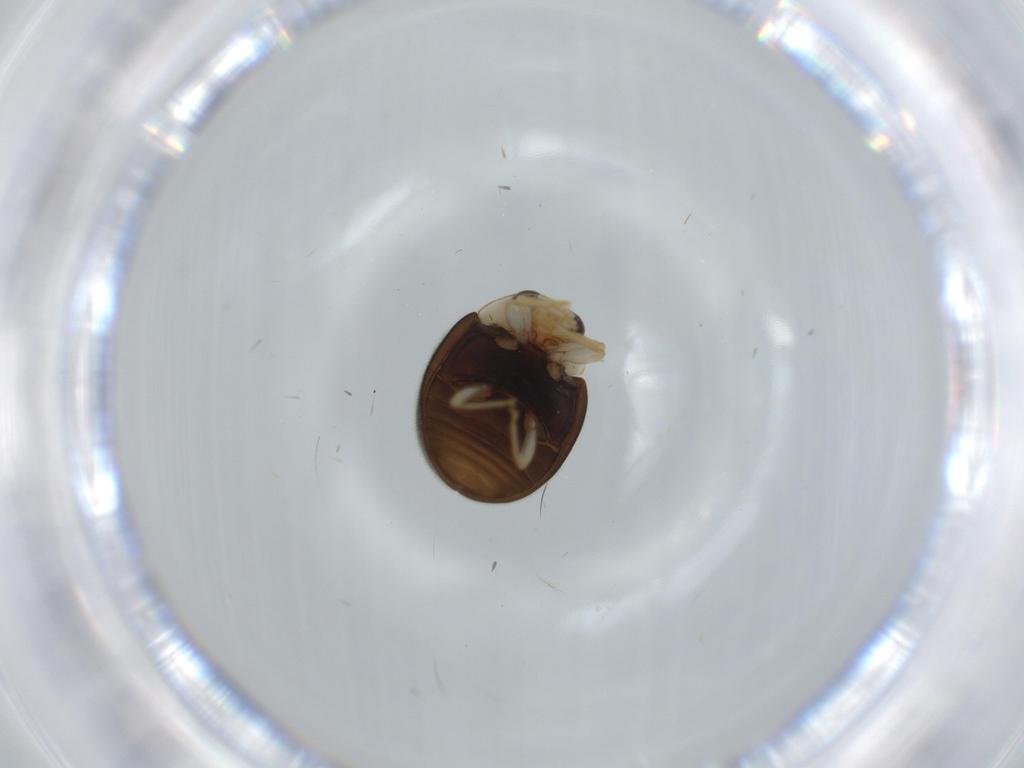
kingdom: Animalia
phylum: Arthropoda
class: Insecta
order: Coleoptera
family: Coccinellidae
